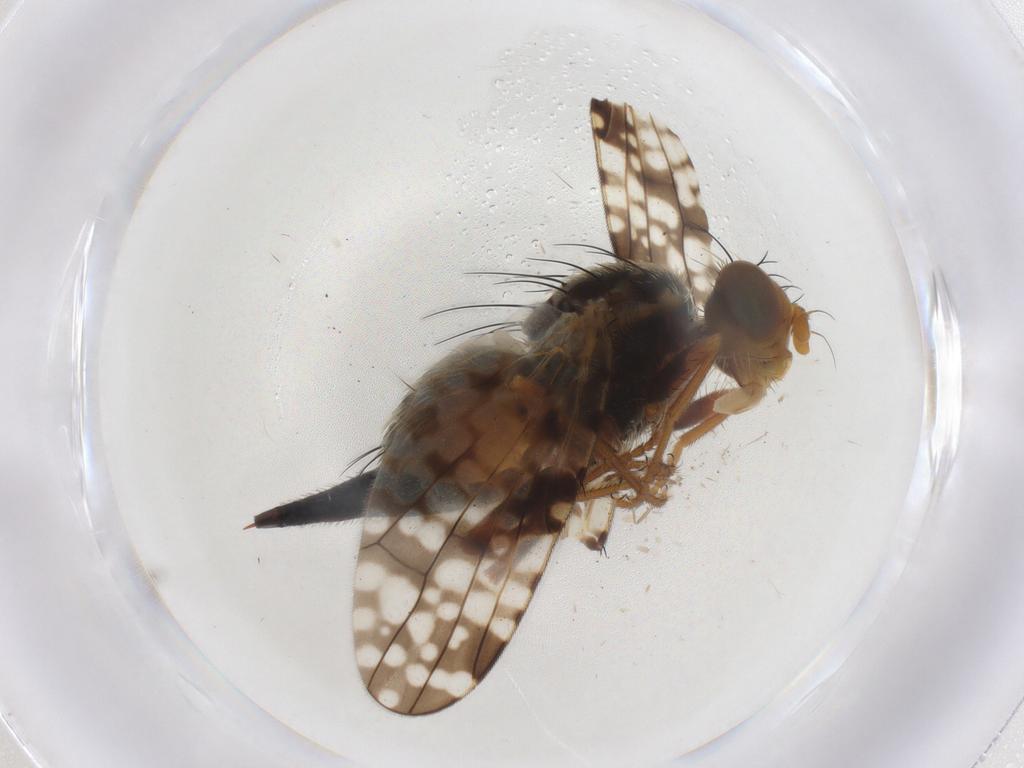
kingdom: Animalia
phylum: Arthropoda
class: Insecta
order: Diptera
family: Tephritidae
